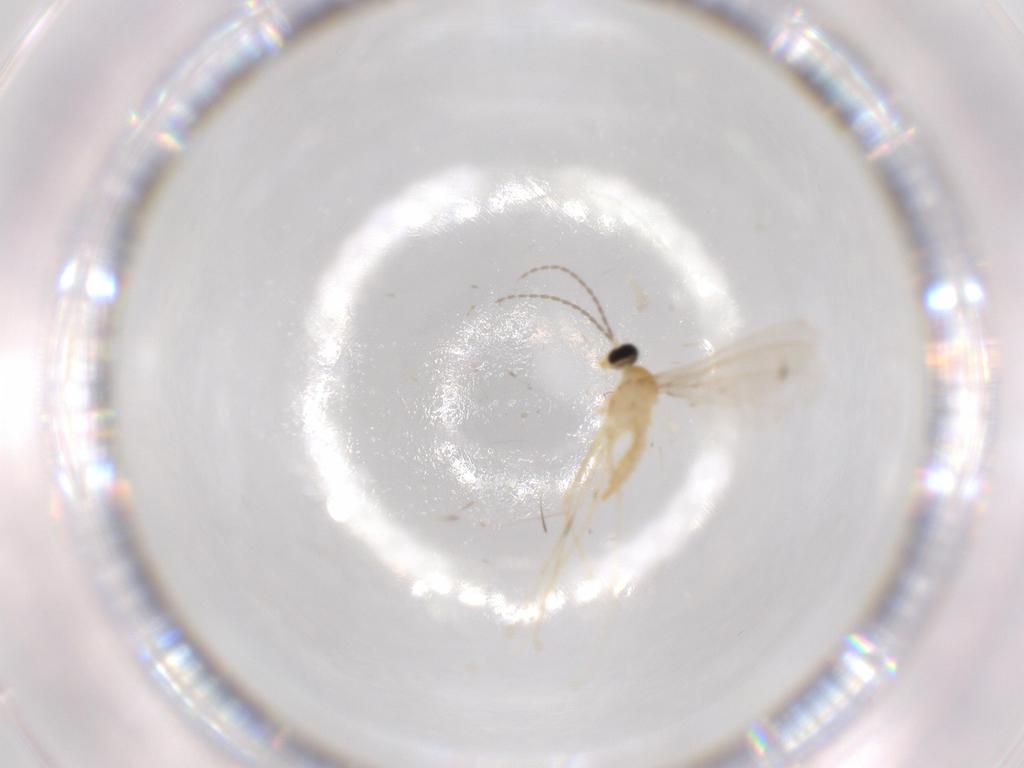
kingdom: Animalia
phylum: Arthropoda
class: Insecta
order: Diptera
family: Cecidomyiidae
